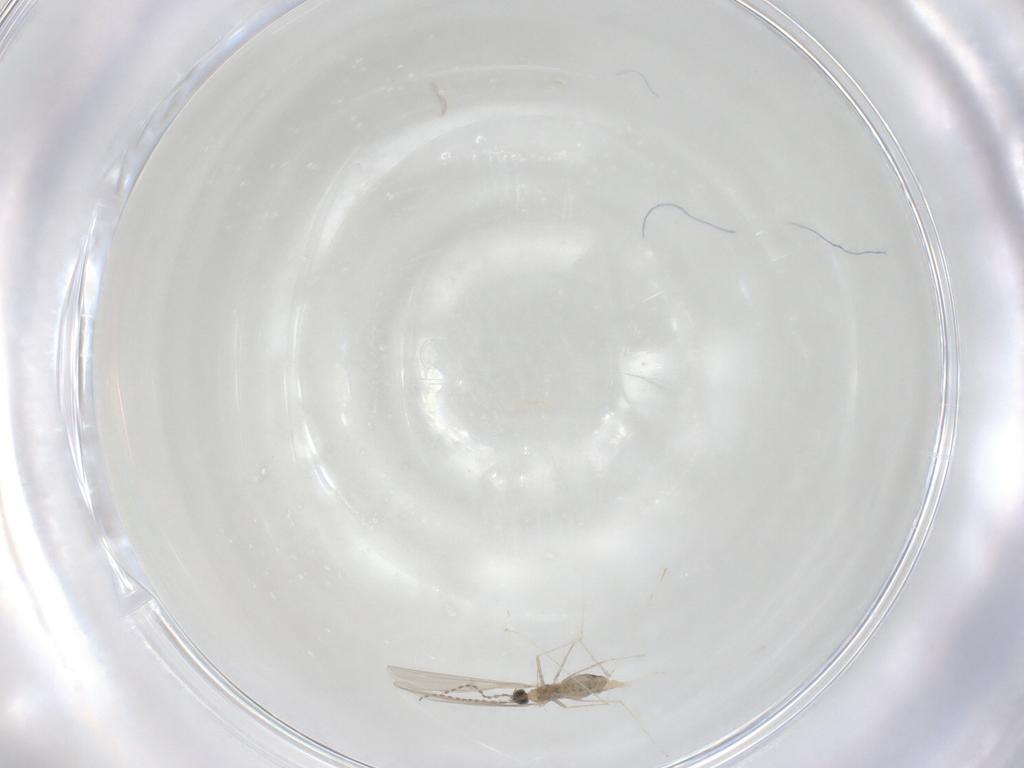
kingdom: Animalia
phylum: Arthropoda
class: Insecta
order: Diptera
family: Cecidomyiidae
